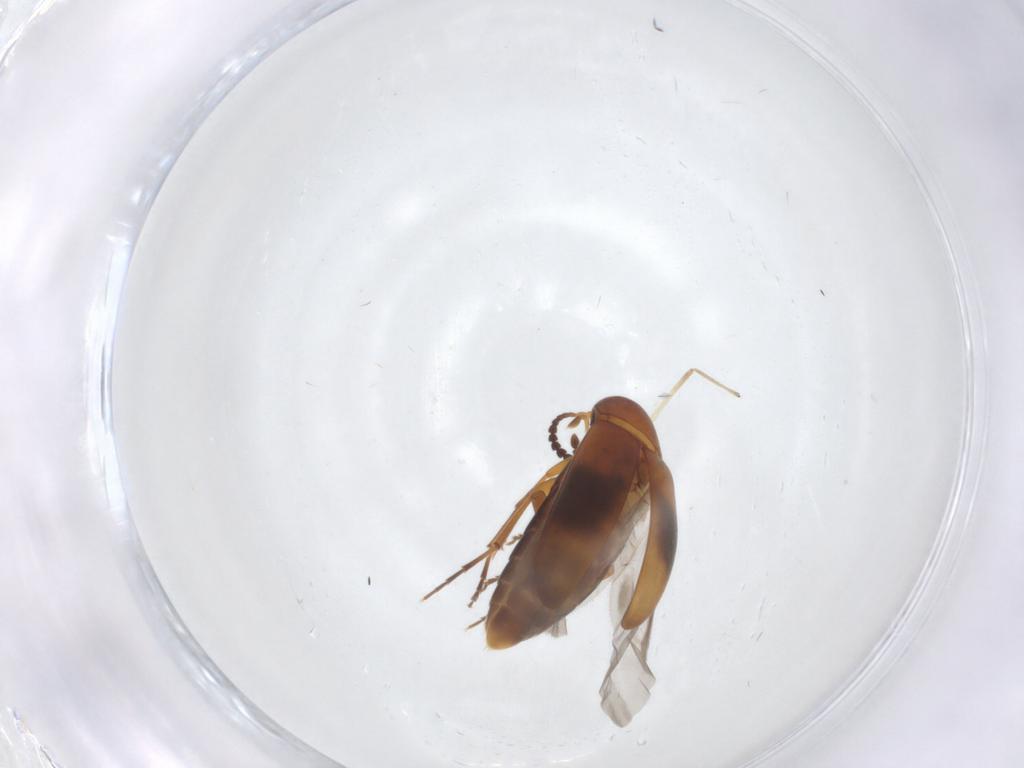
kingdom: Animalia
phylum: Arthropoda
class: Insecta
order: Coleoptera
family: Scraptiidae
